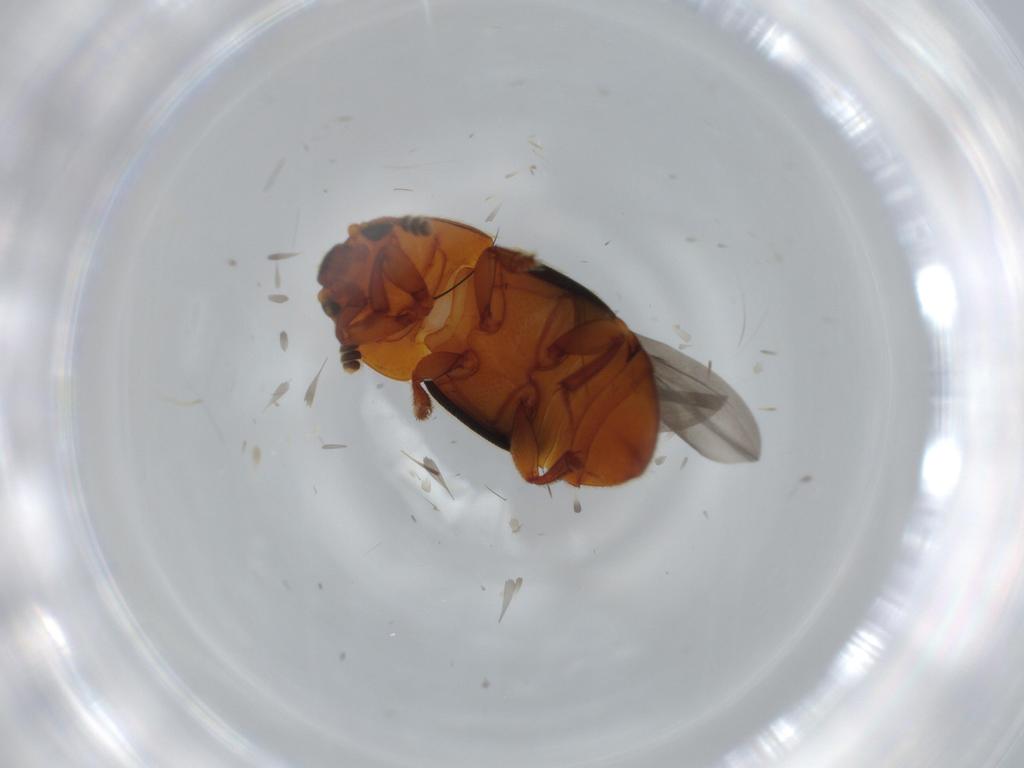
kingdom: Animalia
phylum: Arthropoda
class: Insecta
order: Coleoptera
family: Nitidulidae
